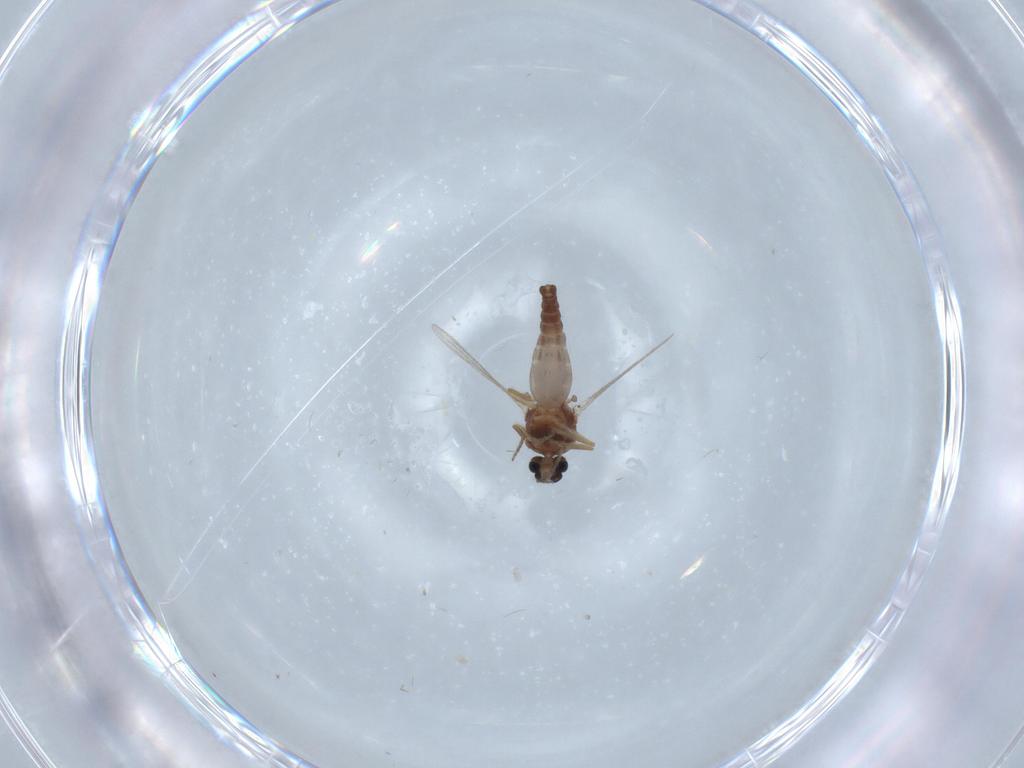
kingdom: Animalia
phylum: Arthropoda
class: Insecta
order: Diptera
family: Ceratopogonidae
